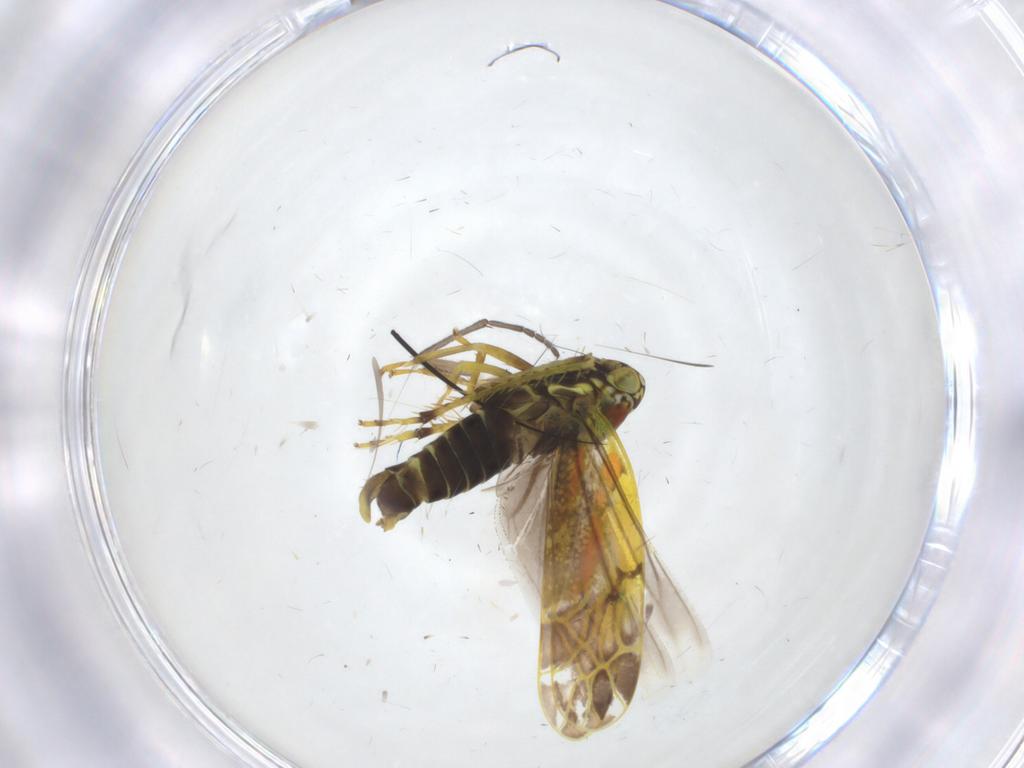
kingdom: Animalia
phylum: Arthropoda
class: Insecta
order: Hemiptera
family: Cicadellidae
